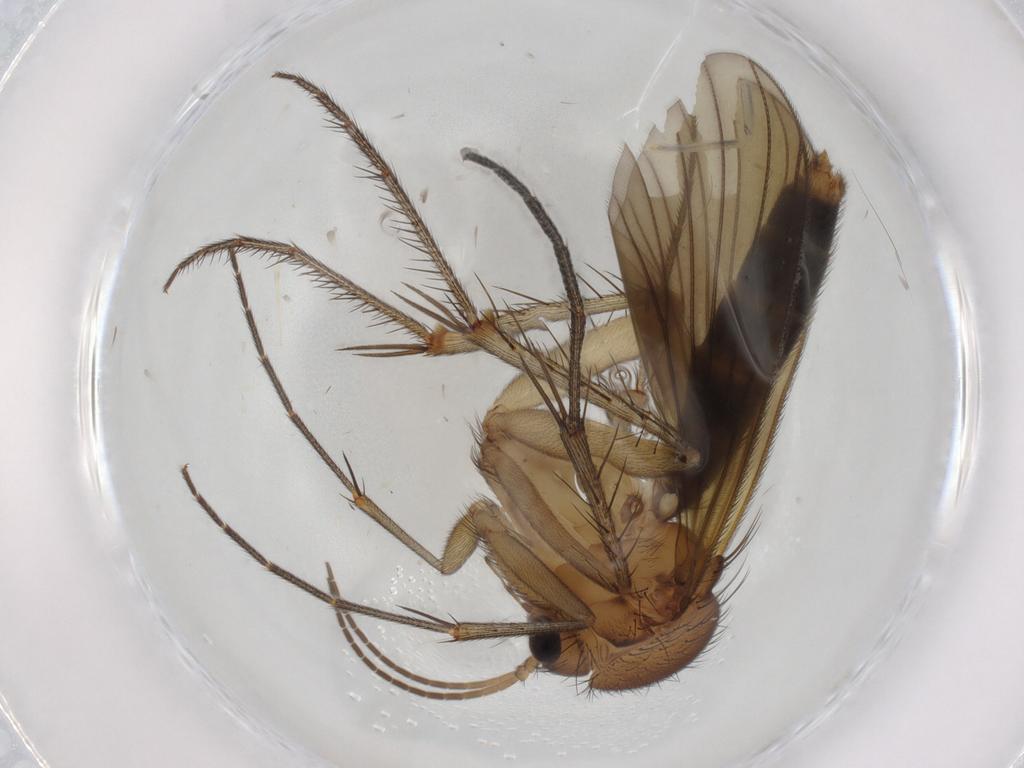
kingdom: Animalia
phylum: Arthropoda
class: Insecta
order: Diptera
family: Mycetophilidae
